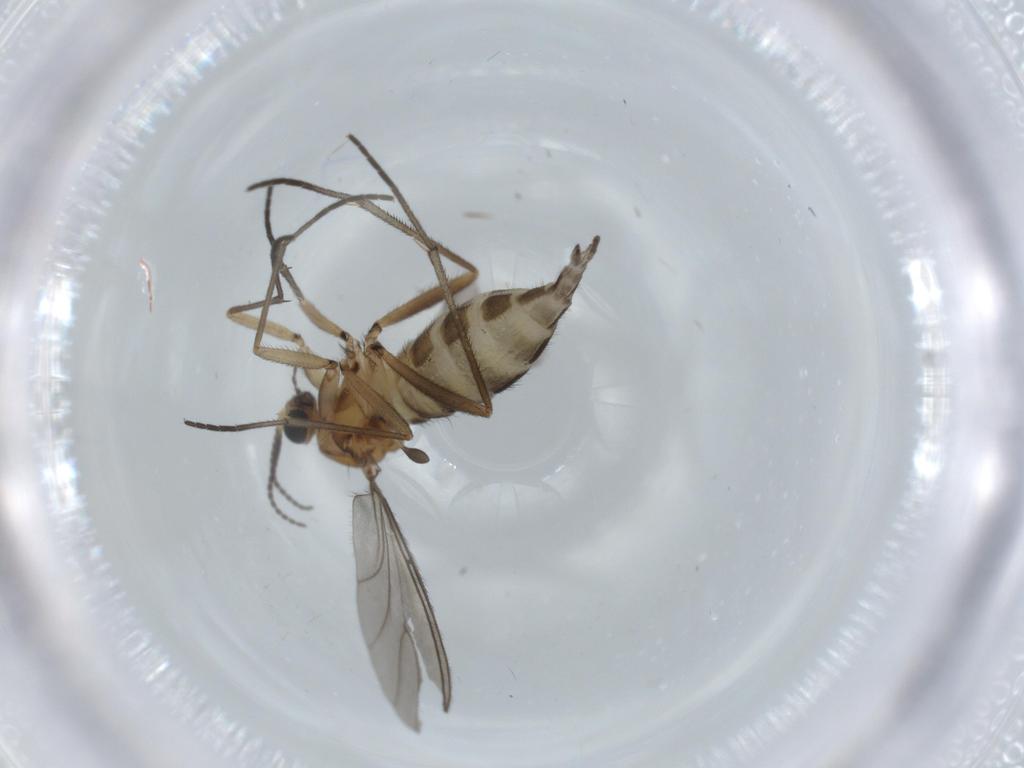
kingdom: Animalia
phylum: Arthropoda
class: Insecta
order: Diptera
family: Sciaridae
